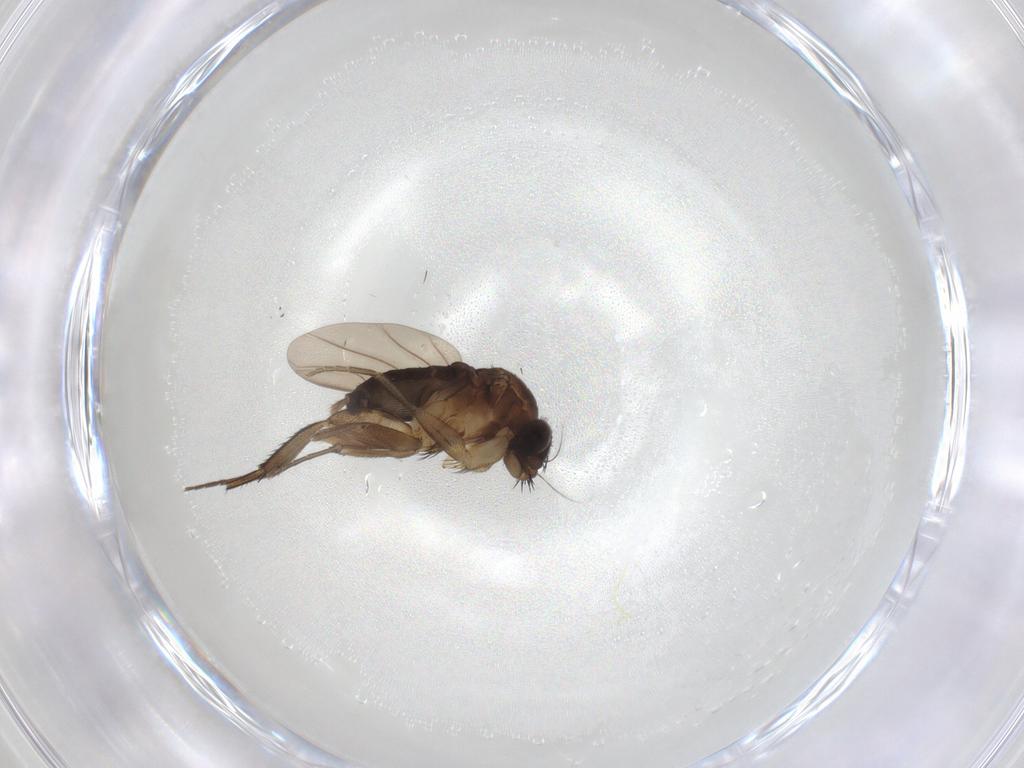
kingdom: Animalia
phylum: Arthropoda
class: Insecta
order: Diptera
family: Phoridae
